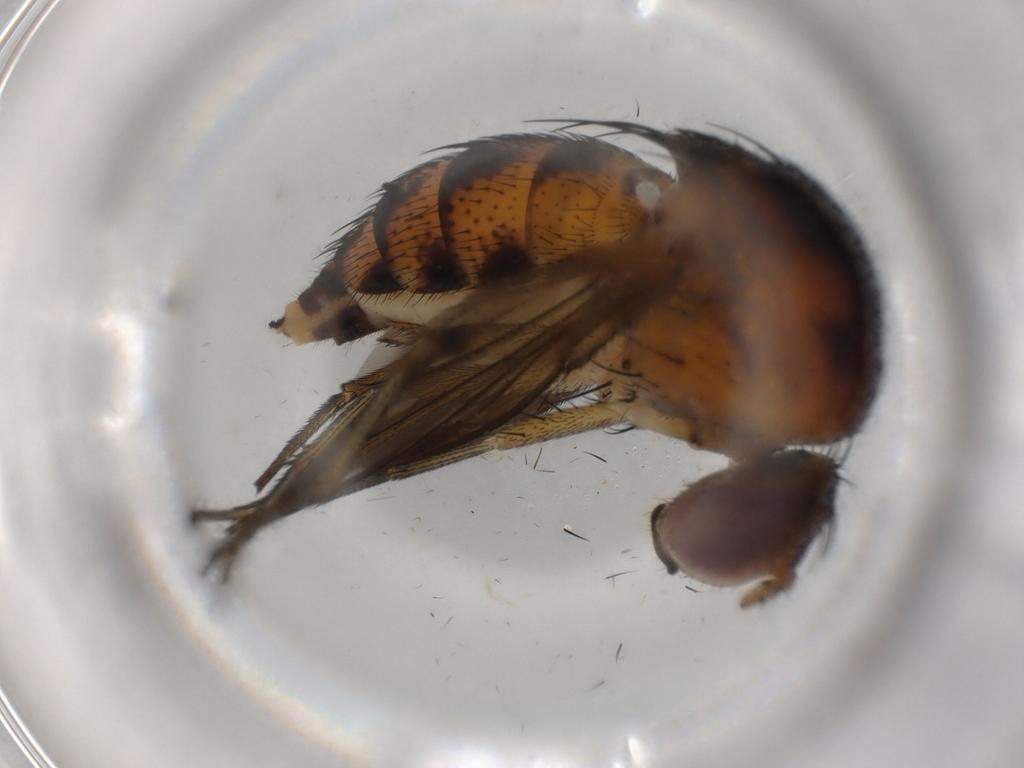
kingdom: Animalia
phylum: Arthropoda
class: Insecta
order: Diptera
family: Curtonotidae
